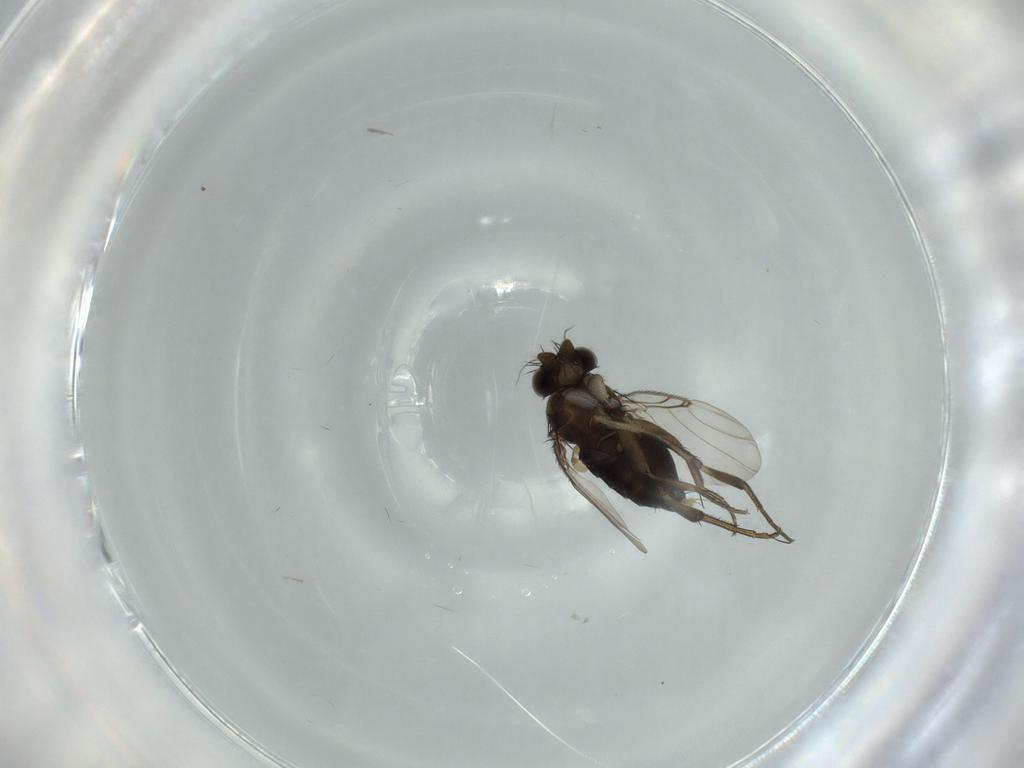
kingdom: Animalia
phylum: Arthropoda
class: Insecta
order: Diptera
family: Phoridae
